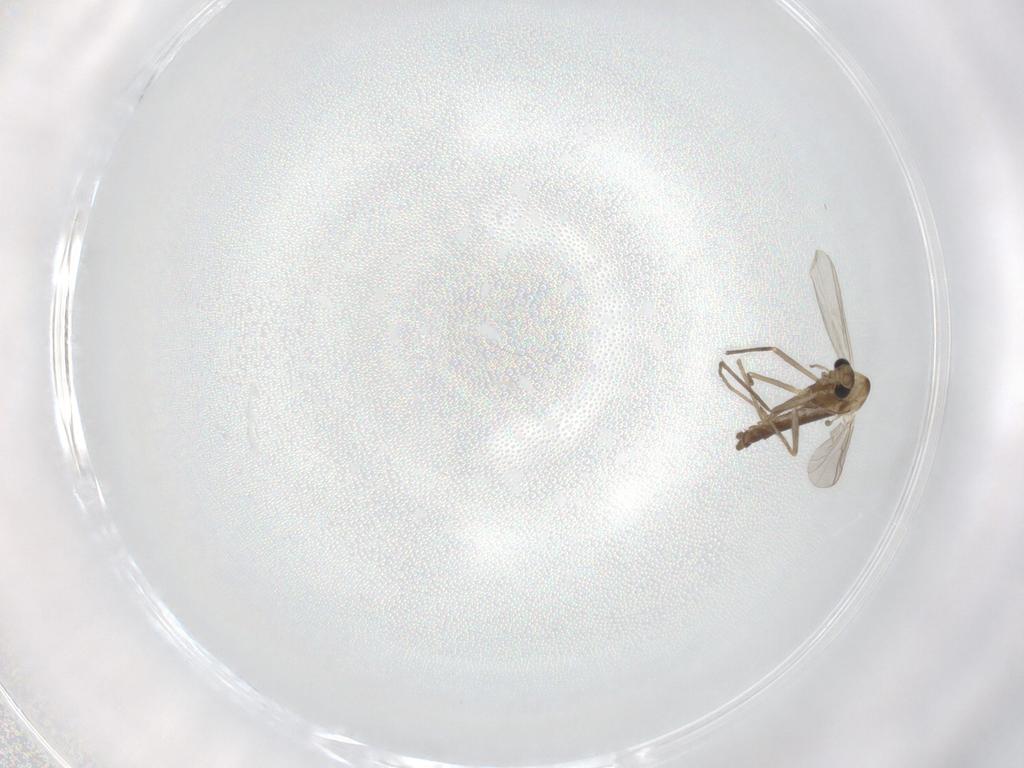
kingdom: Animalia
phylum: Arthropoda
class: Insecta
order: Diptera
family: Chironomidae
